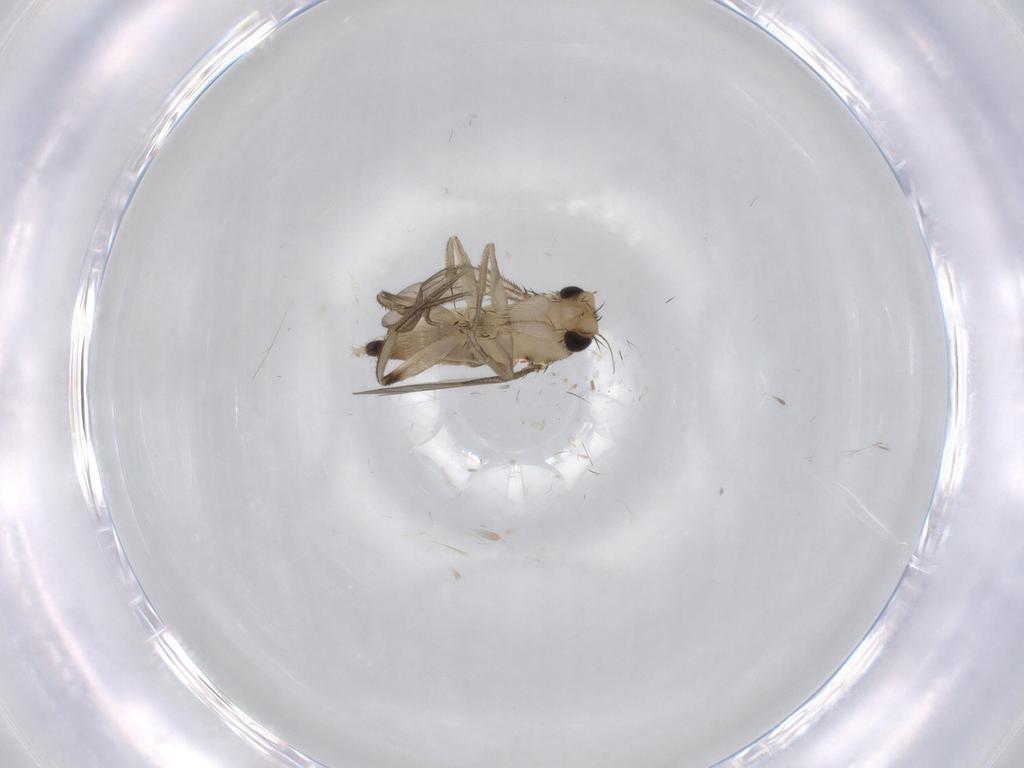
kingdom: Animalia
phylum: Arthropoda
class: Insecta
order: Diptera
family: Phoridae
